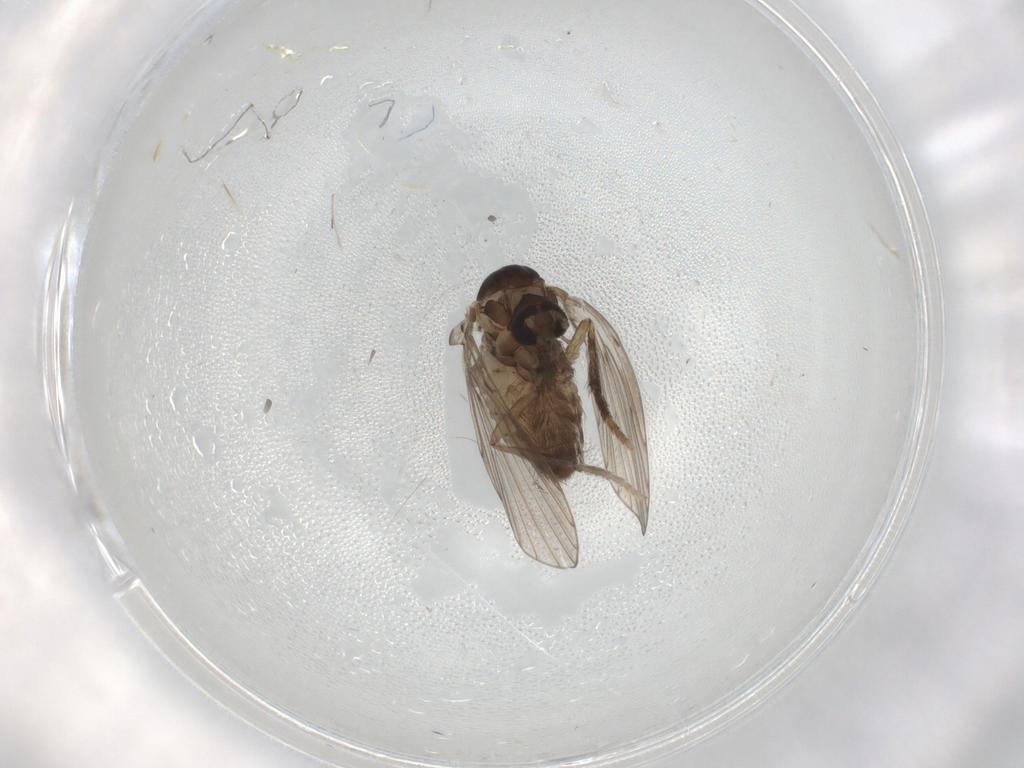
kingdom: Animalia
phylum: Arthropoda
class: Insecta
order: Diptera
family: Psychodidae
